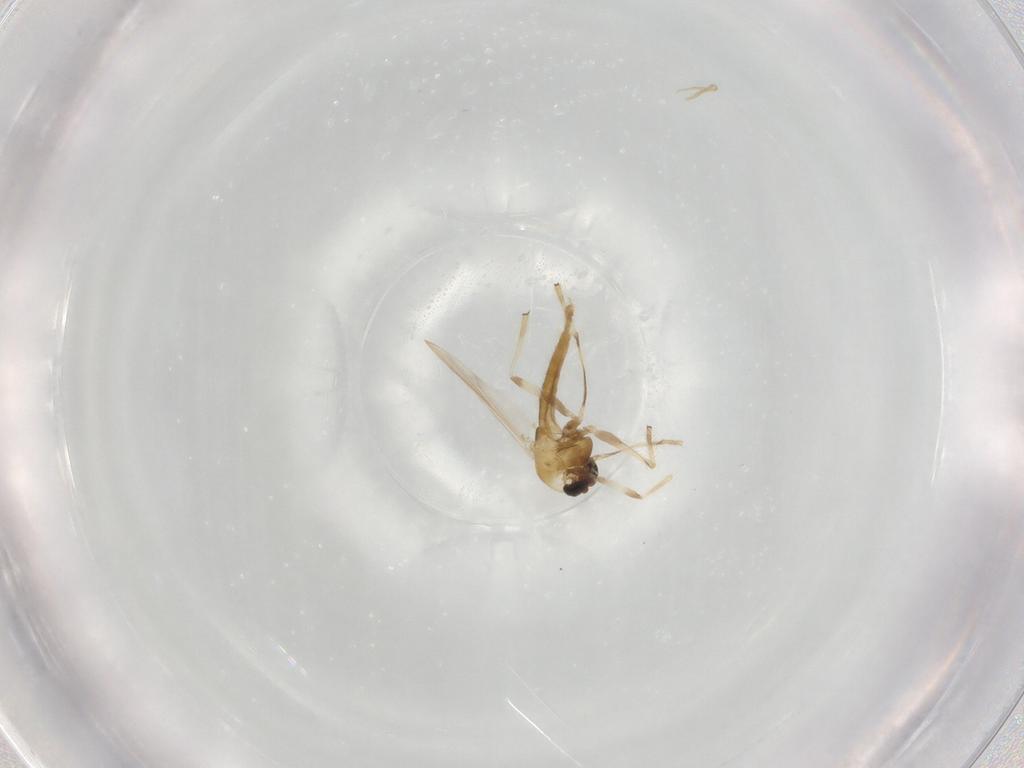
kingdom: Animalia
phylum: Arthropoda
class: Insecta
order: Diptera
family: Chironomidae
